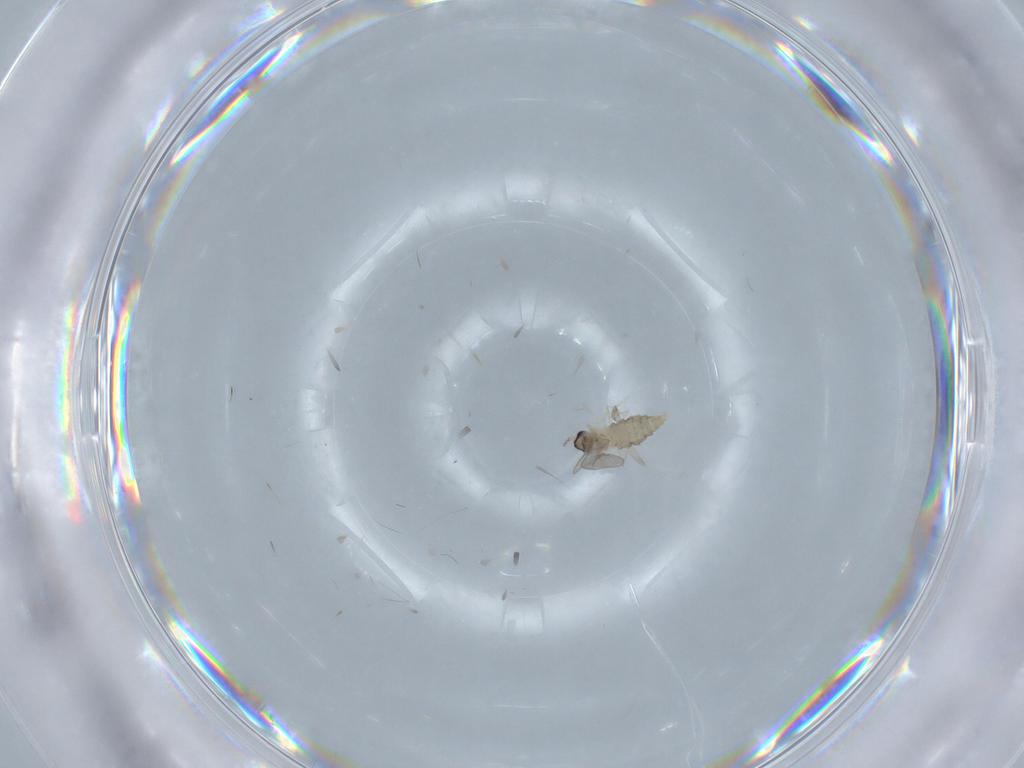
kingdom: Animalia
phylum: Arthropoda
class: Insecta
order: Diptera
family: Cecidomyiidae
